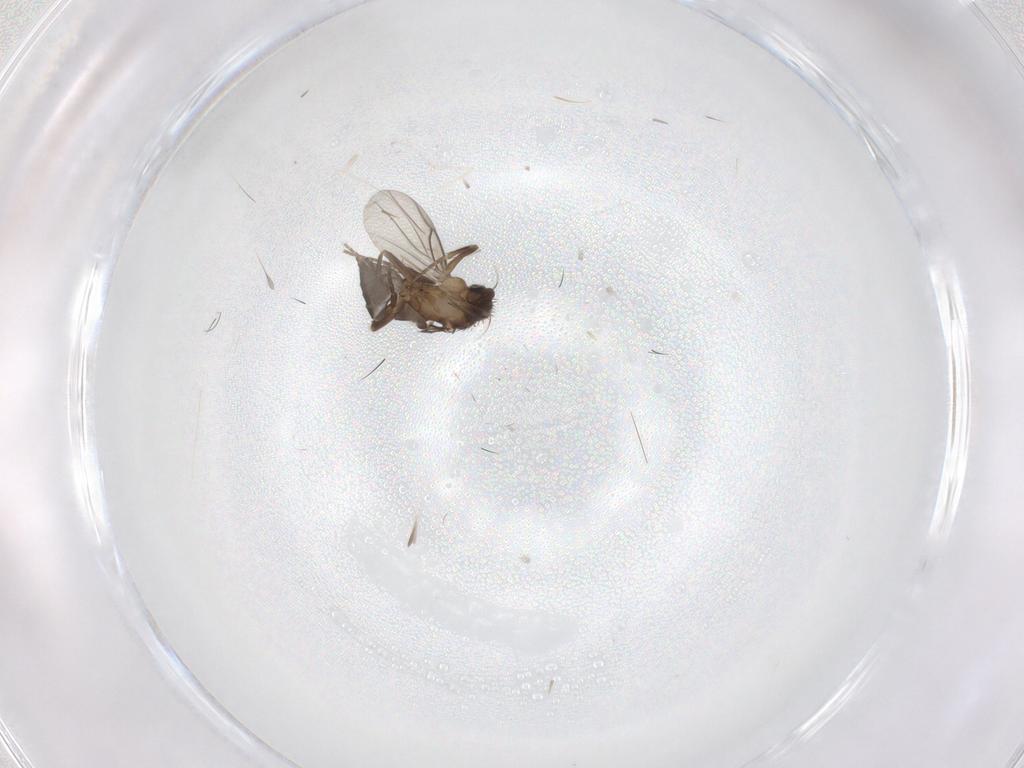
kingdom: Animalia
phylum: Arthropoda
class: Insecta
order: Diptera
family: Cecidomyiidae
